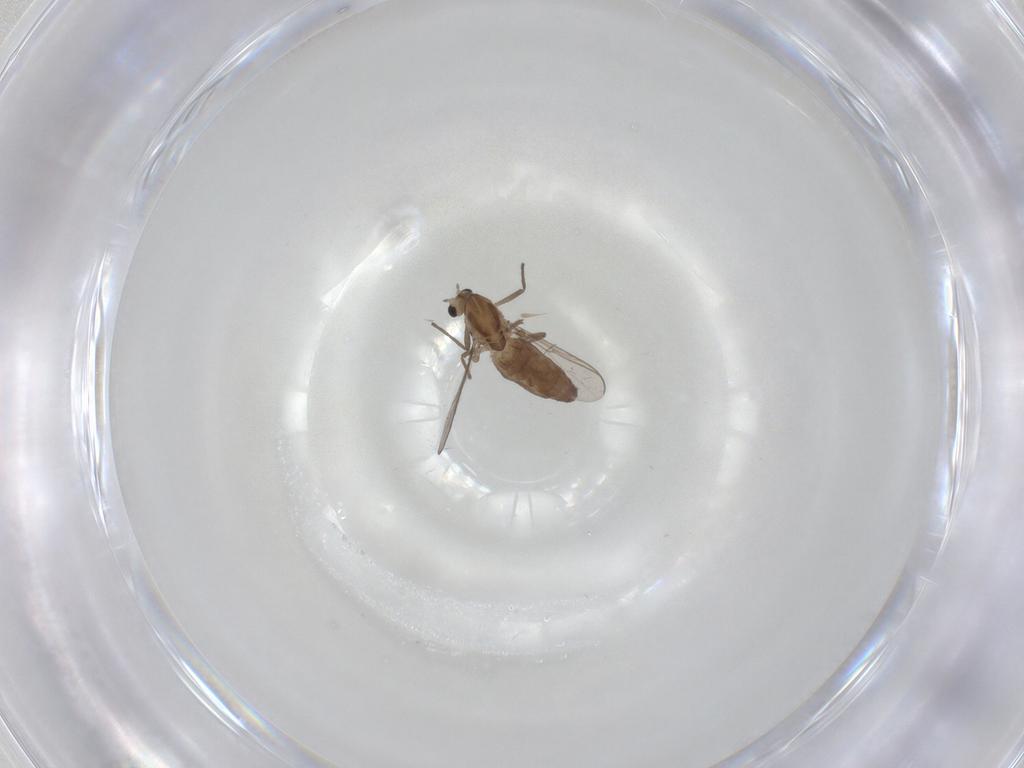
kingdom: Animalia
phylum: Arthropoda
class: Insecta
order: Diptera
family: Chironomidae
